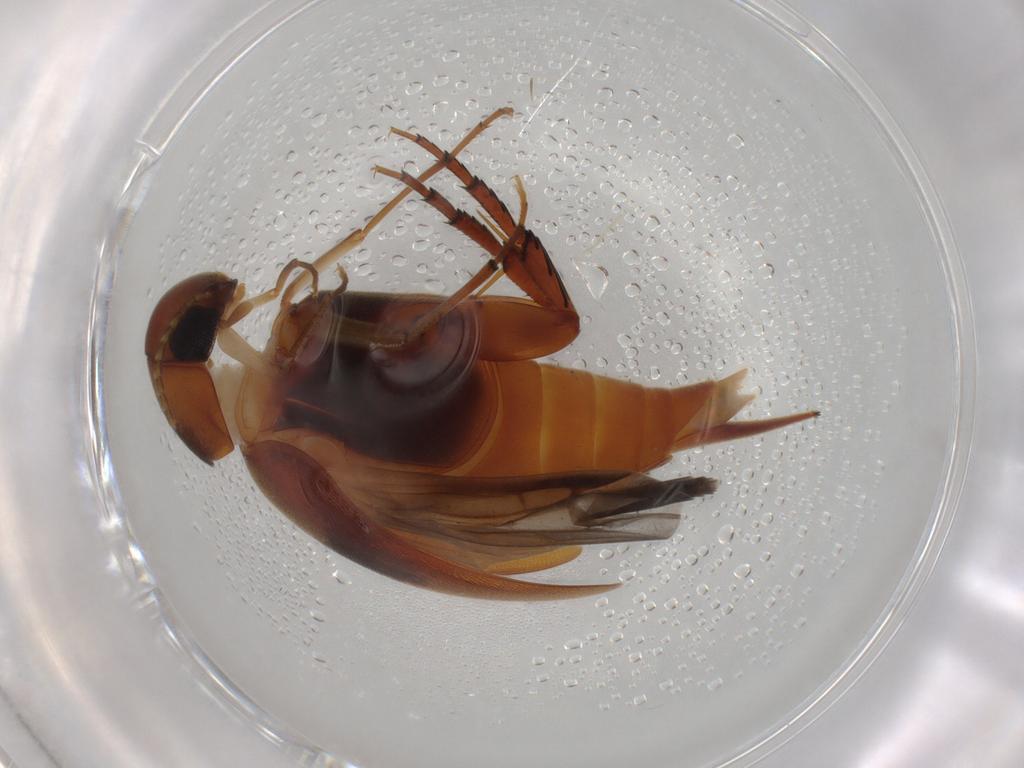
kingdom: Animalia
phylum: Arthropoda
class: Insecta
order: Coleoptera
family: Mordellidae
